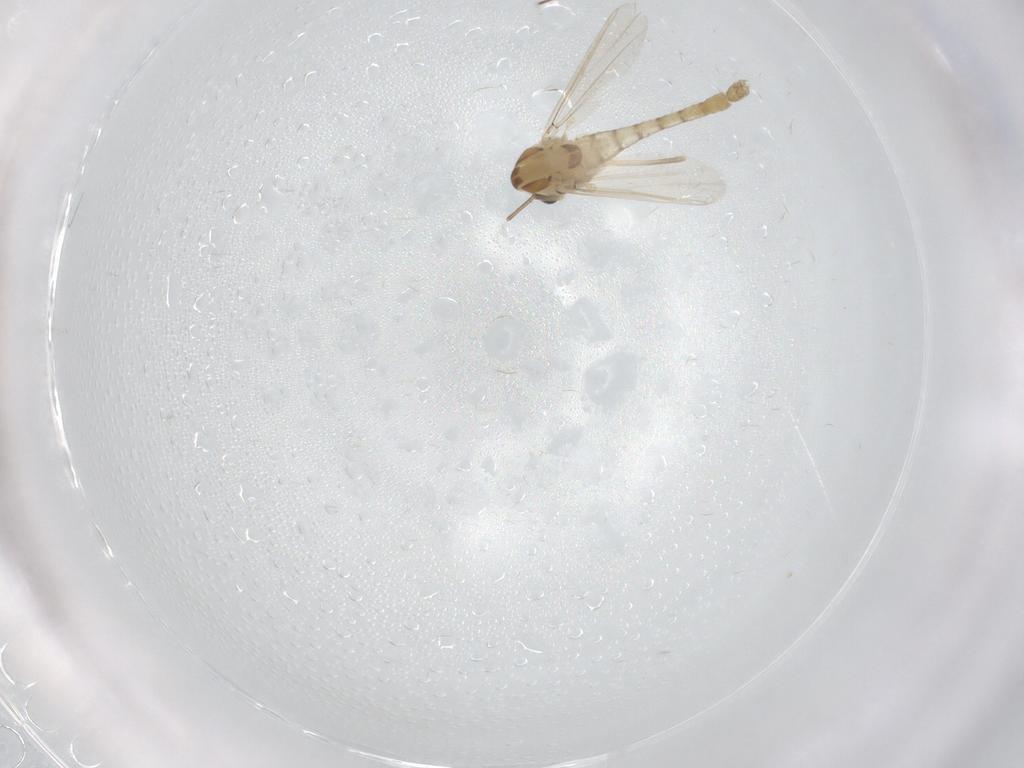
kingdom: Animalia
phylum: Arthropoda
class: Insecta
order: Diptera
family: Chironomidae
